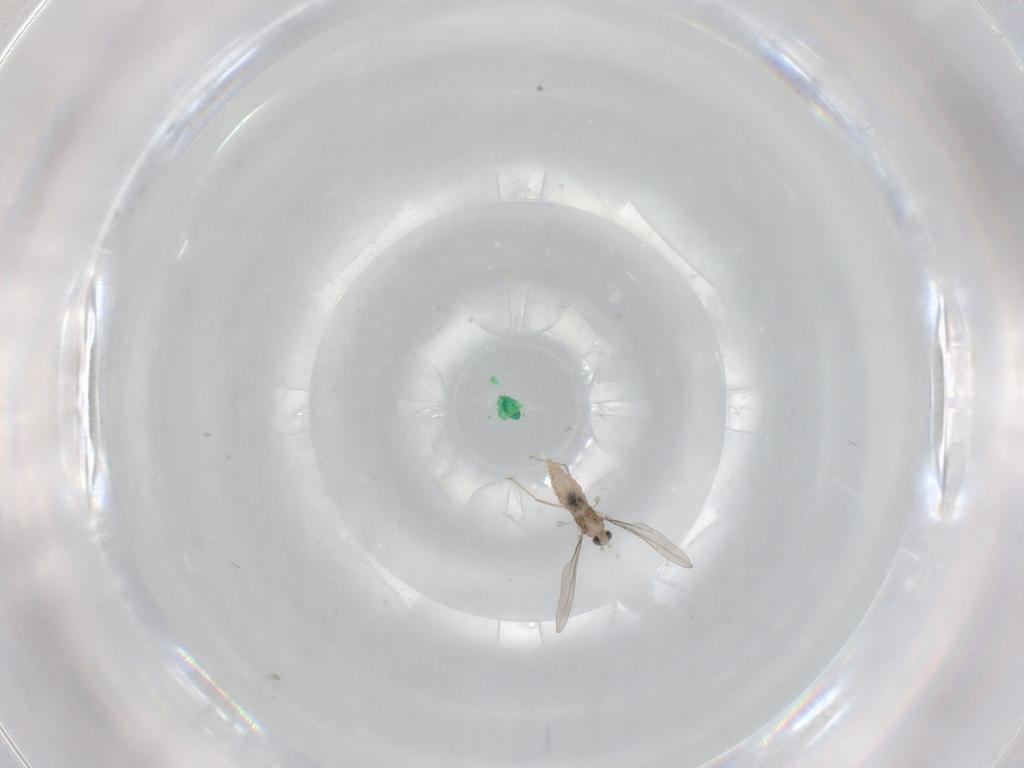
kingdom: Animalia
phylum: Arthropoda
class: Insecta
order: Diptera
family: Cecidomyiidae
